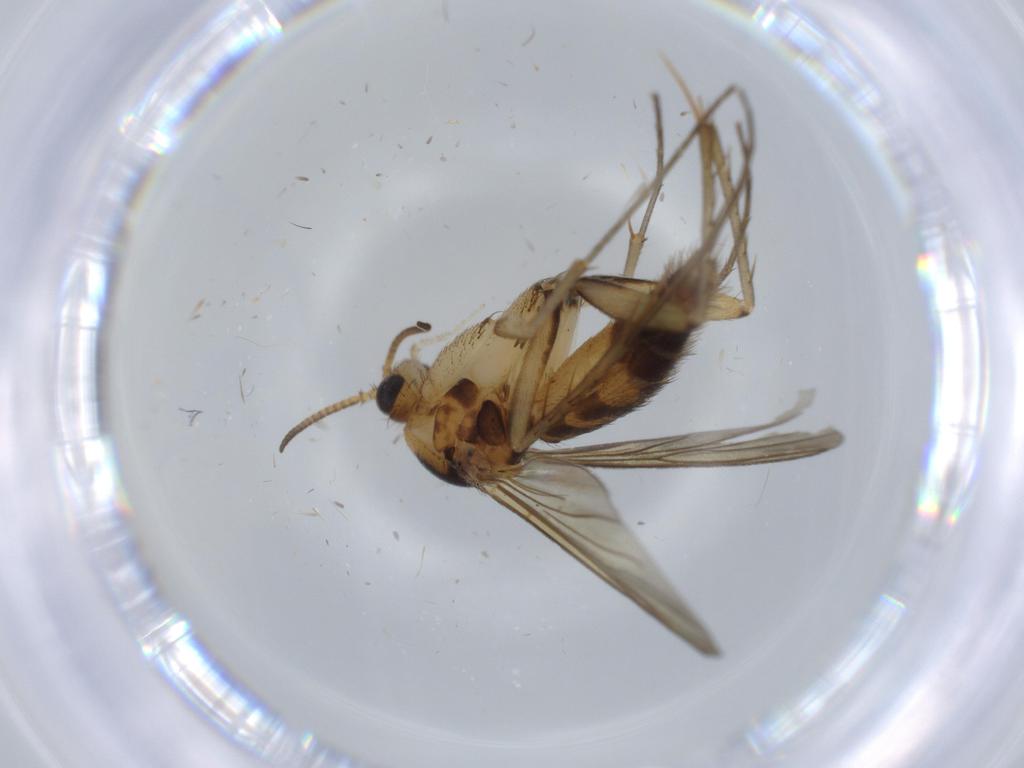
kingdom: Animalia
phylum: Arthropoda
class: Insecta
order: Diptera
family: Mycetophilidae
